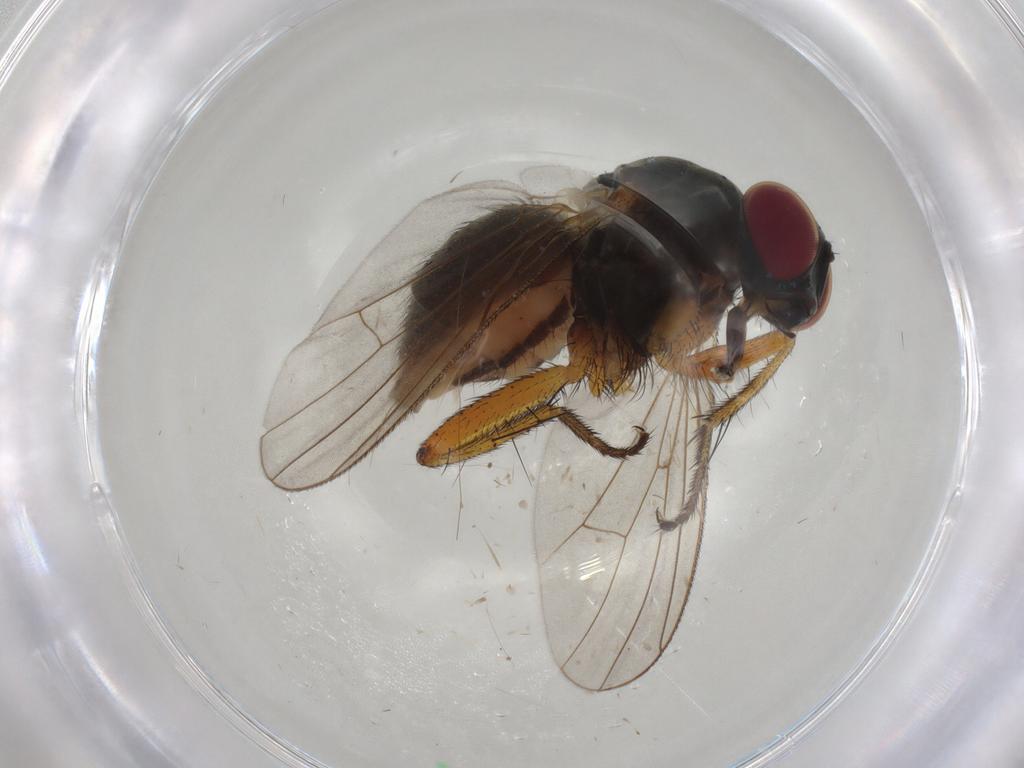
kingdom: Animalia
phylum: Arthropoda
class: Insecta
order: Diptera
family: Muscidae
